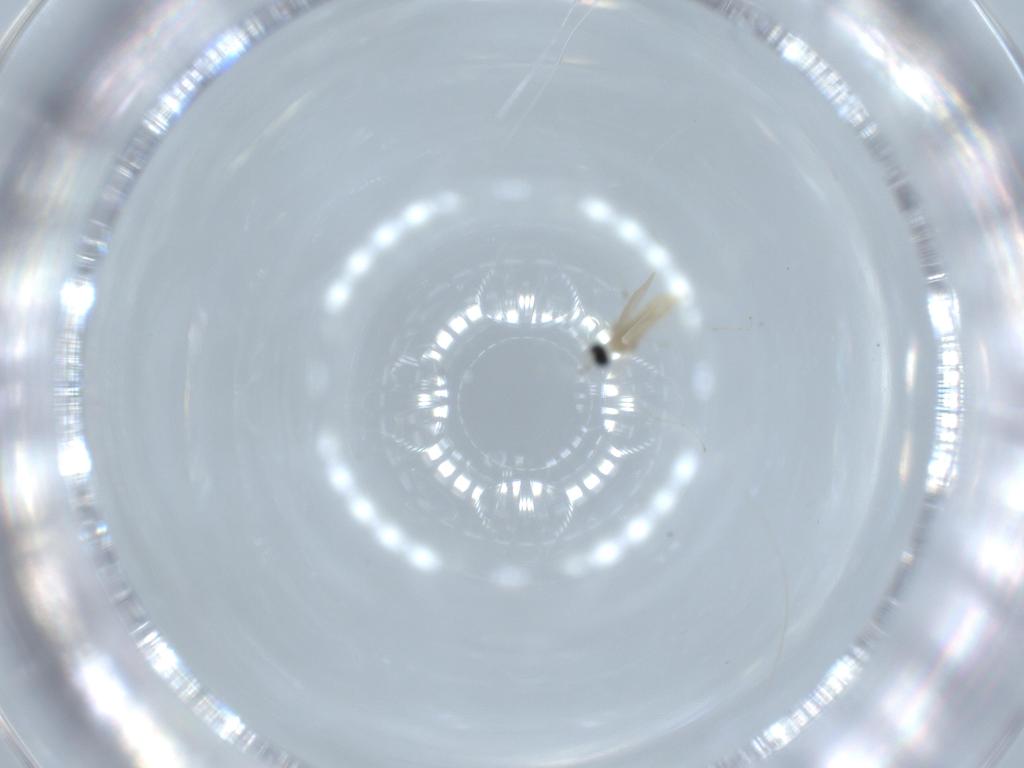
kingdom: Animalia
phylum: Arthropoda
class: Insecta
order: Diptera
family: Cecidomyiidae
